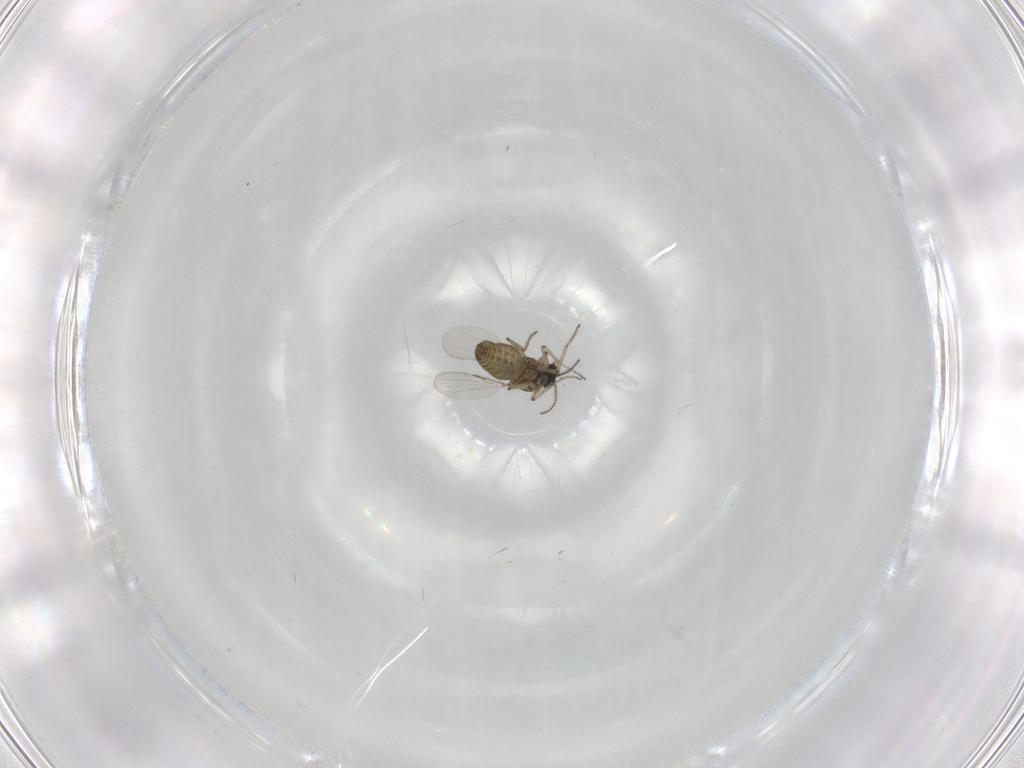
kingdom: Animalia
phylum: Arthropoda
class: Insecta
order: Diptera
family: Ceratopogonidae
